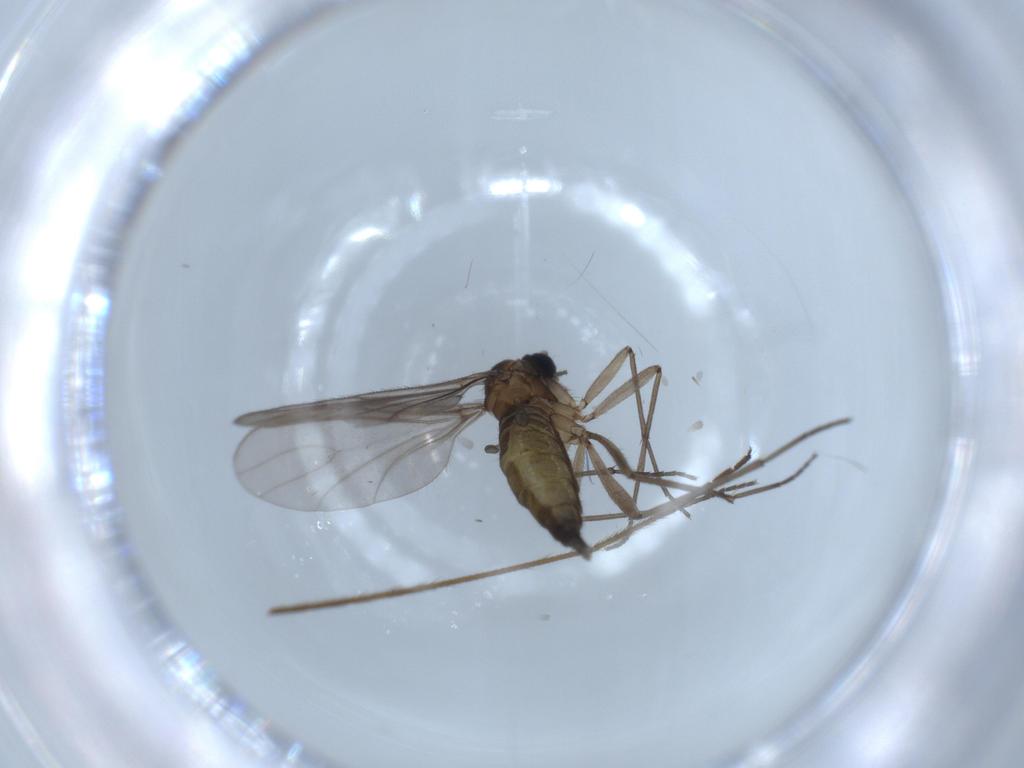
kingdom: Animalia
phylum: Arthropoda
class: Insecta
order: Diptera
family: Sciaridae
